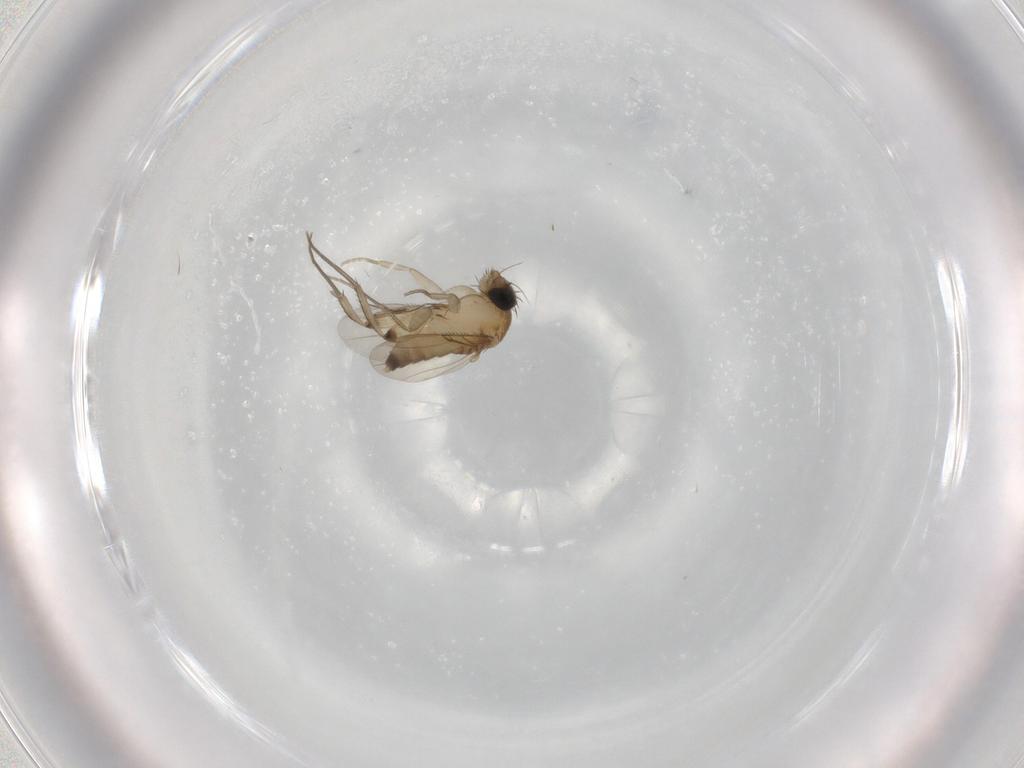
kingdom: Animalia
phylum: Arthropoda
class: Insecta
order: Diptera
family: Phoridae
